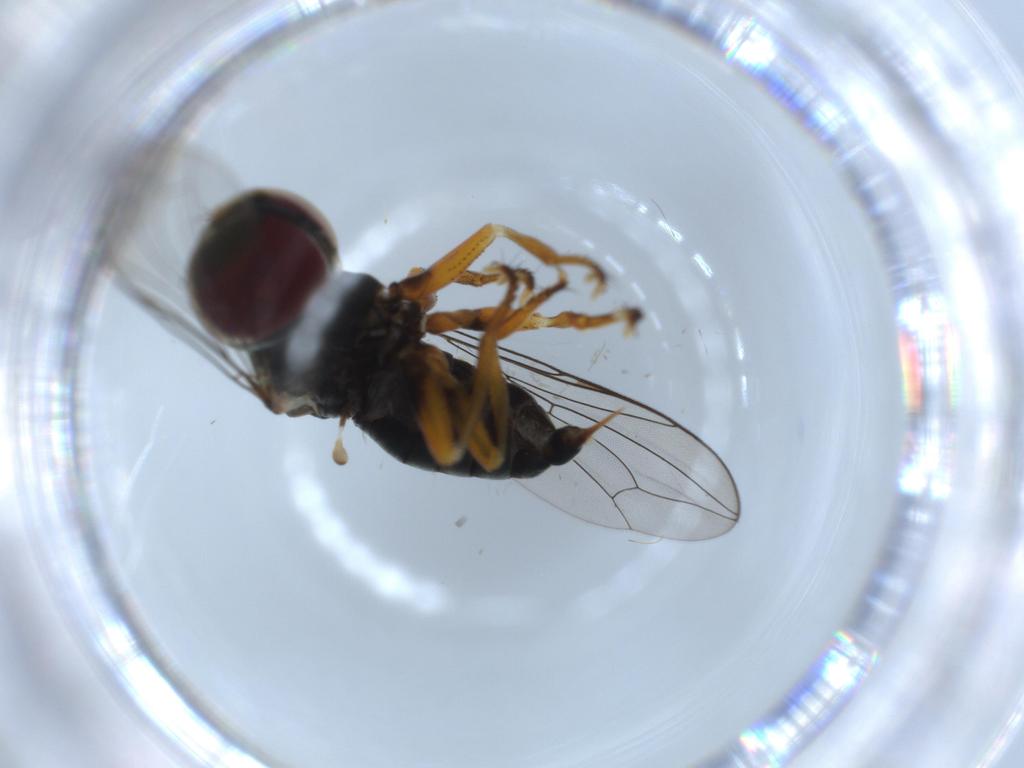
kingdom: Animalia
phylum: Arthropoda
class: Insecta
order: Diptera
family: Pipunculidae
